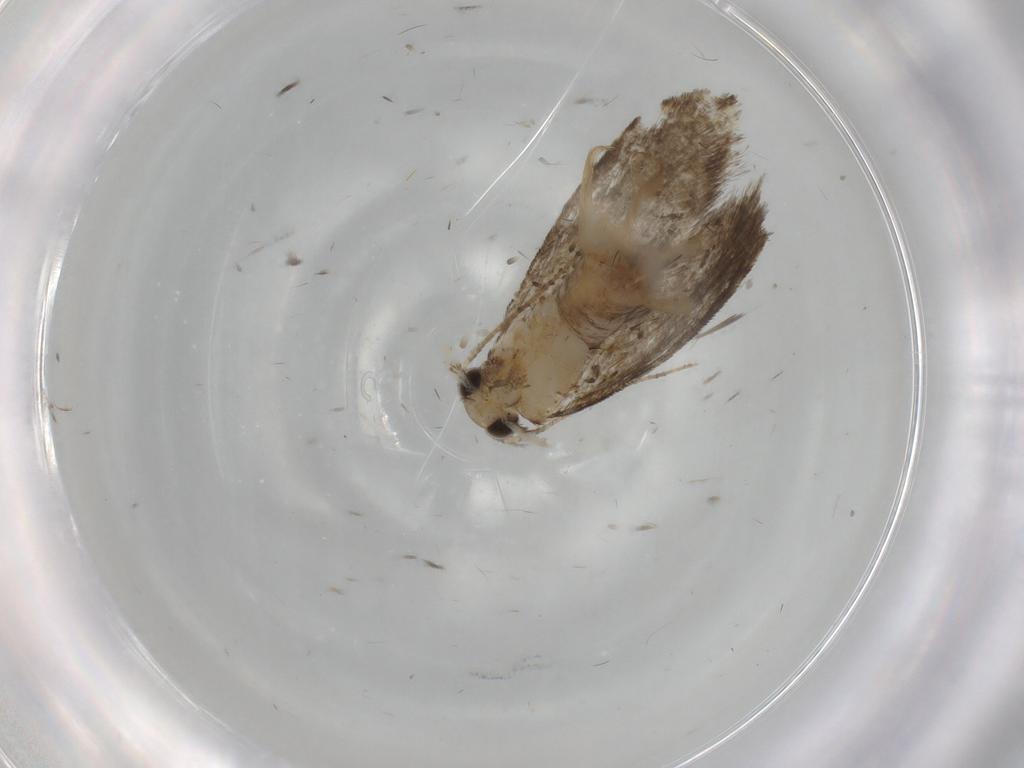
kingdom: Animalia
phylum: Arthropoda
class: Insecta
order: Lepidoptera
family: Tineidae
